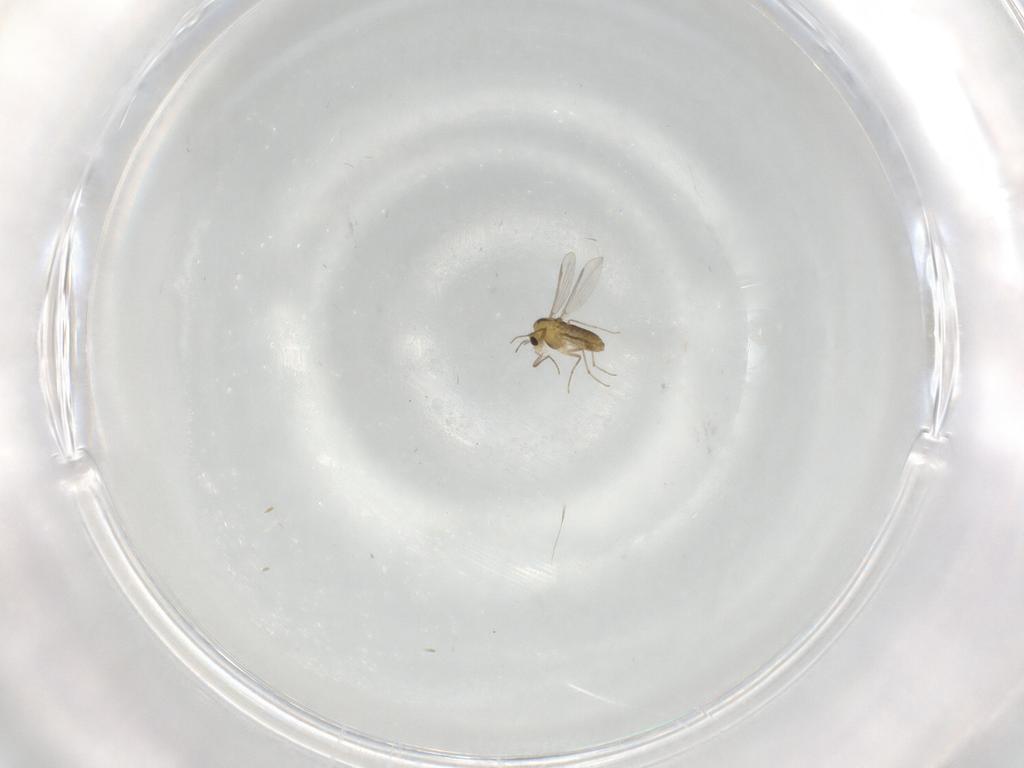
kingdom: Animalia
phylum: Arthropoda
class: Insecta
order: Diptera
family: Chironomidae
